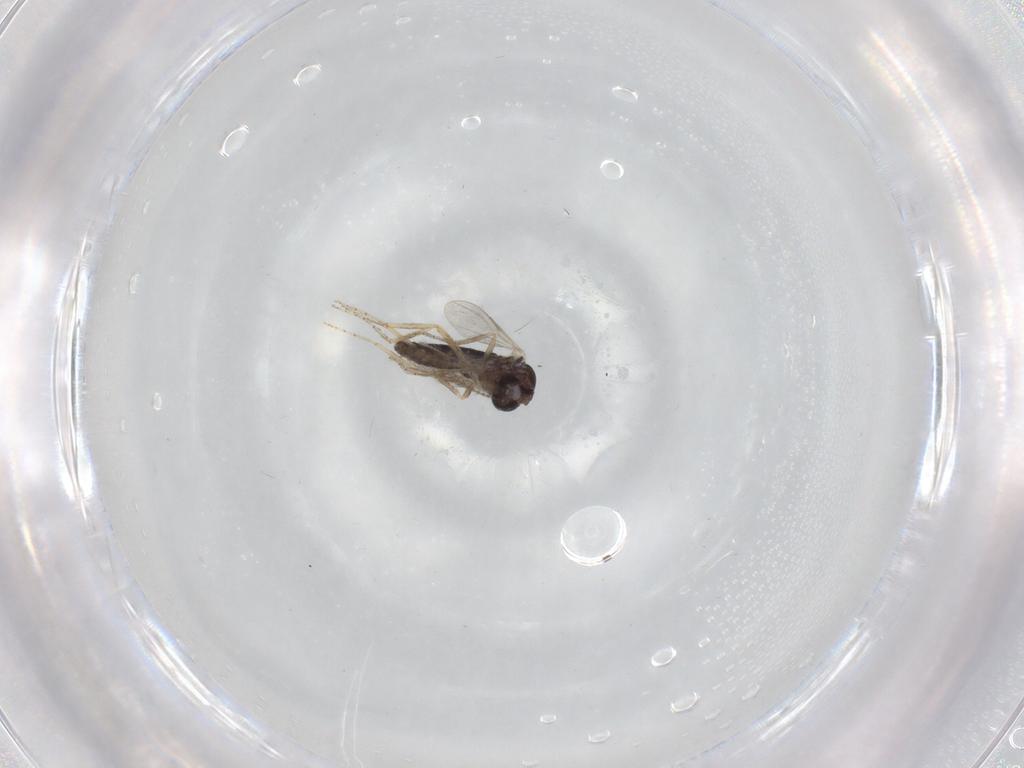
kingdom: Animalia
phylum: Arthropoda
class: Insecta
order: Diptera
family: Ceratopogonidae
